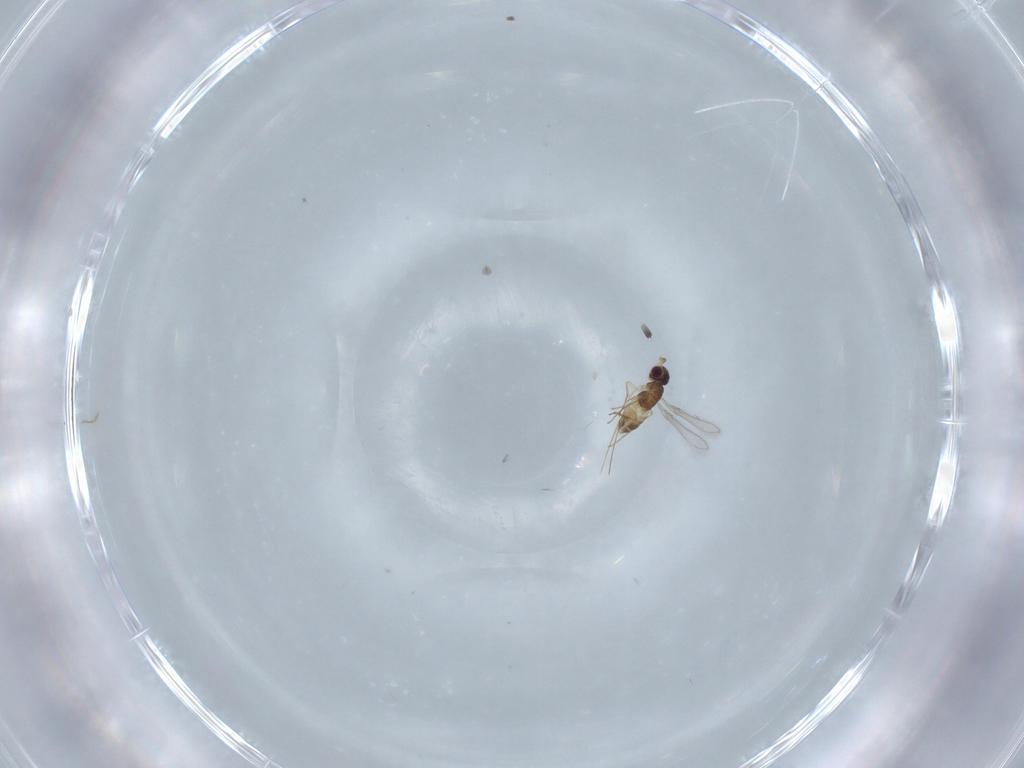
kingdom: Animalia
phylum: Arthropoda
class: Insecta
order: Hymenoptera
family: Mymaridae
